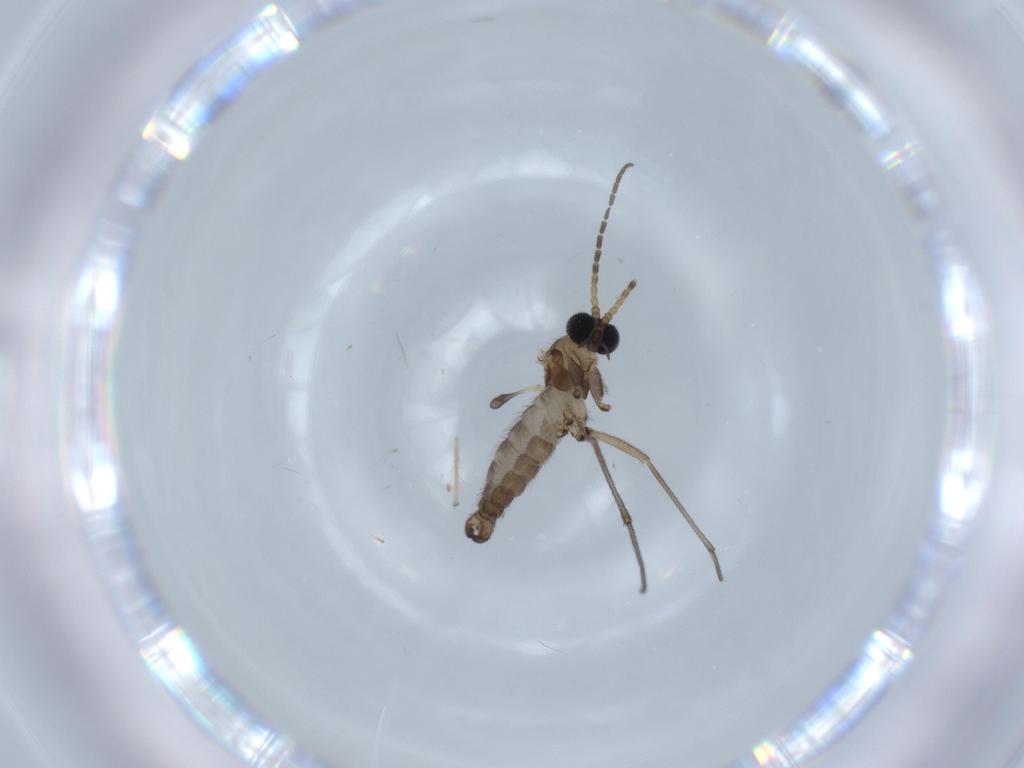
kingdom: Animalia
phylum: Arthropoda
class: Insecta
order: Diptera
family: Sciaridae
